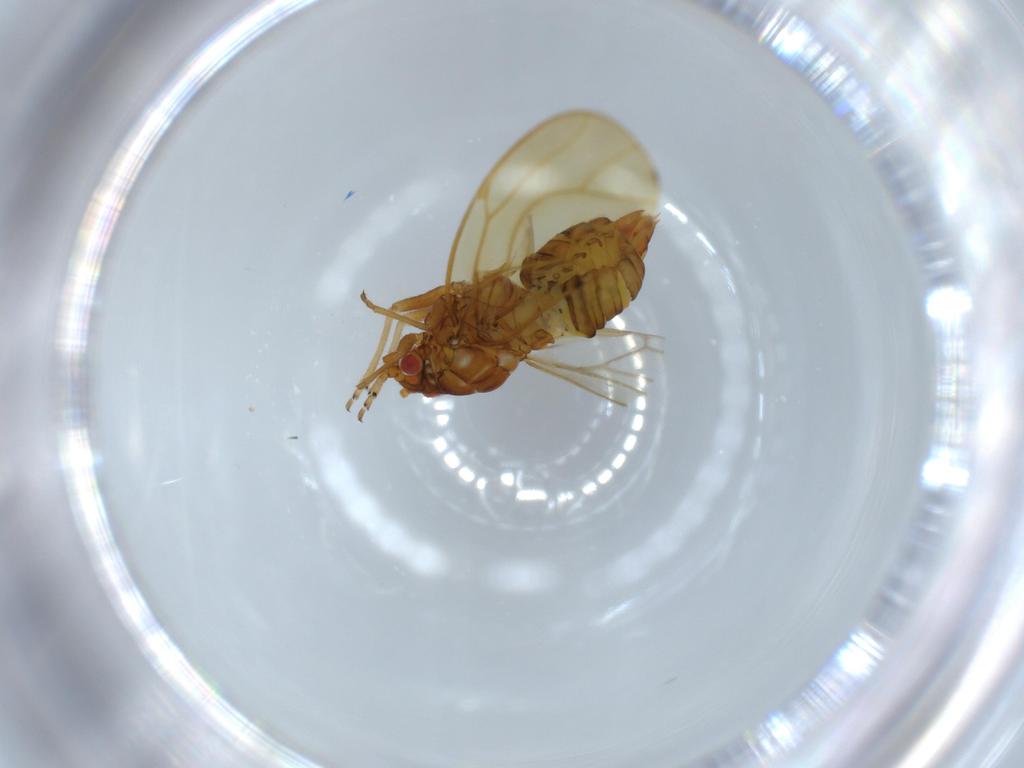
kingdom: Animalia
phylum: Arthropoda
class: Insecta
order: Hemiptera
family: Psylloidea_incertae_sedis
